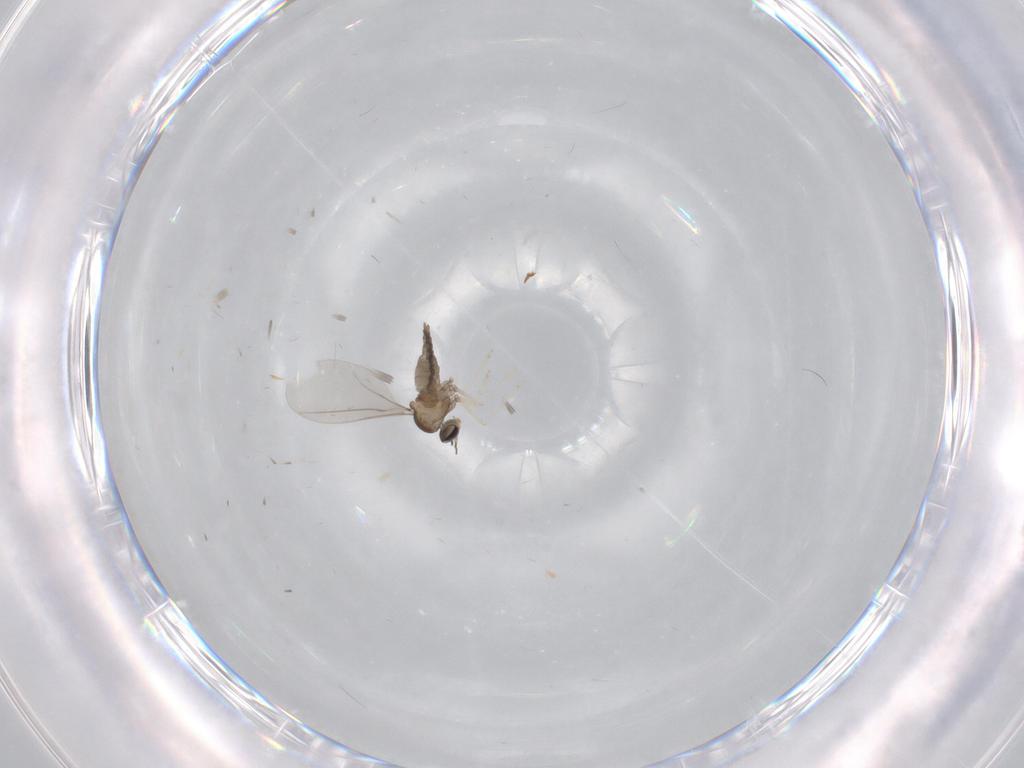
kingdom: Animalia
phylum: Arthropoda
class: Insecta
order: Diptera
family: Cecidomyiidae
